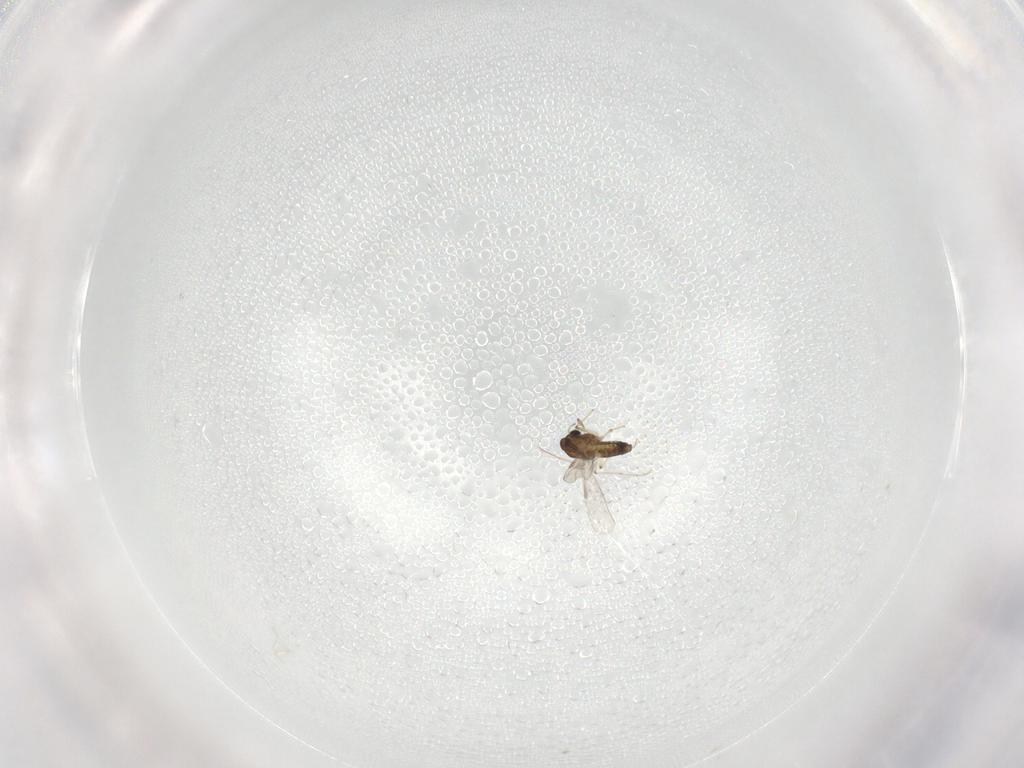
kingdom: Animalia
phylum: Arthropoda
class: Insecta
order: Diptera
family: Chironomidae
